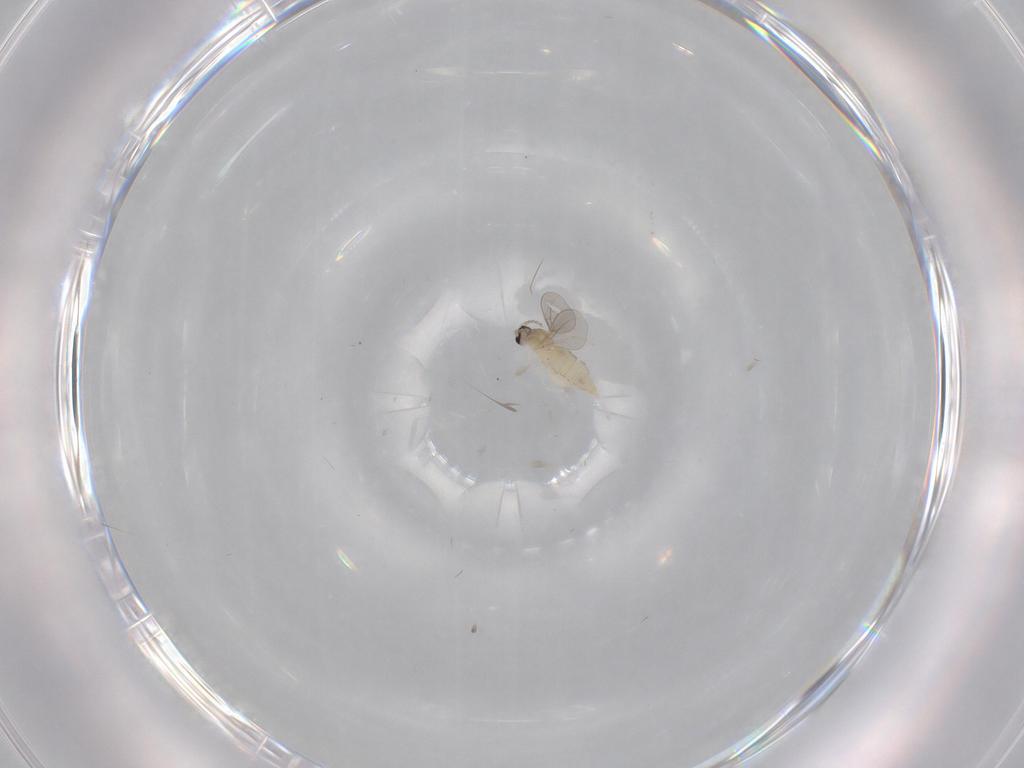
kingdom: Animalia
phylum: Arthropoda
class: Insecta
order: Diptera
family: Cecidomyiidae
